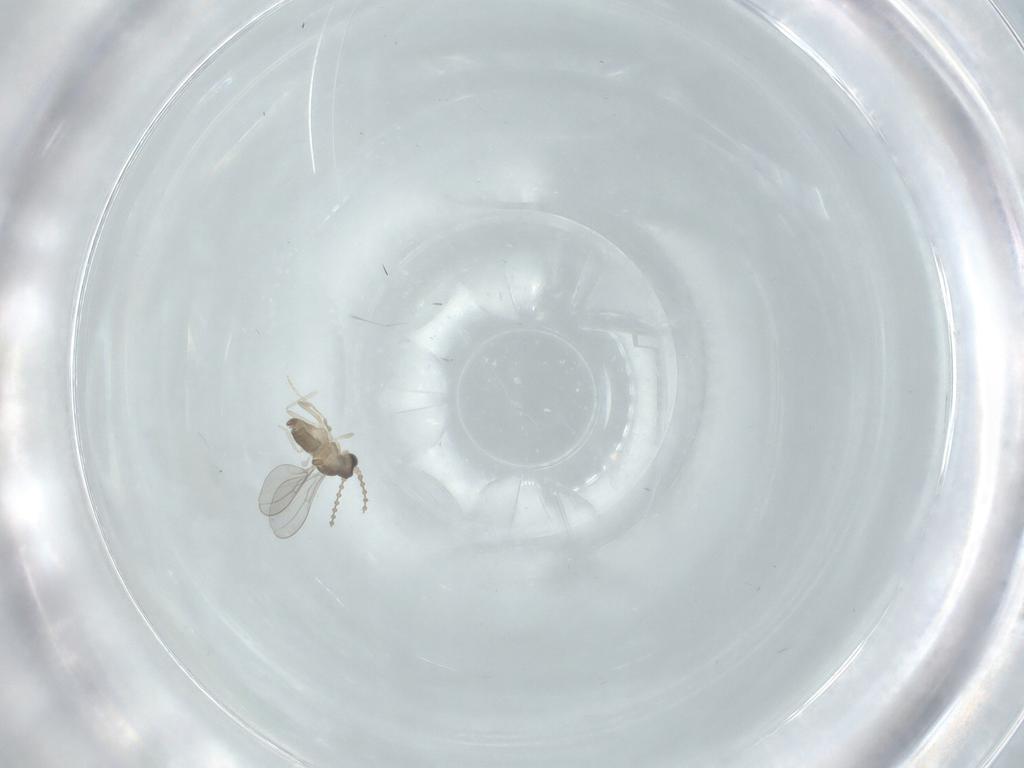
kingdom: Animalia
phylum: Arthropoda
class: Insecta
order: Diptera
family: Cecidomyiidae
